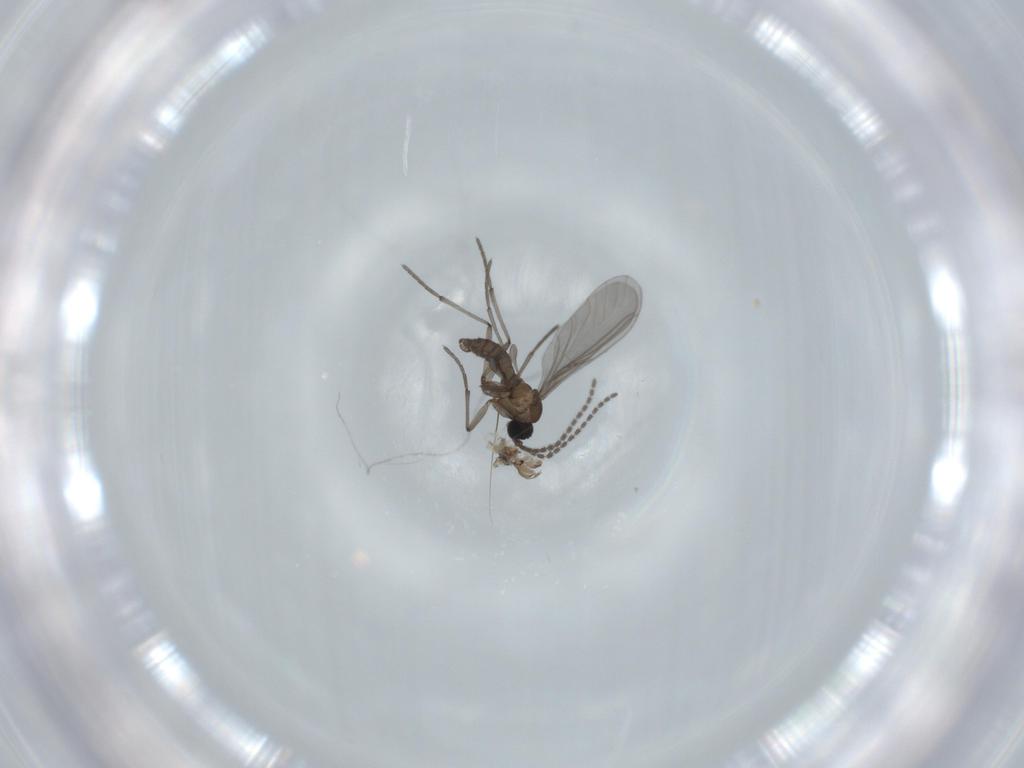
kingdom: Animalia
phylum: Arthropoda
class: Insecta
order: Diptera
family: Sciaridae
